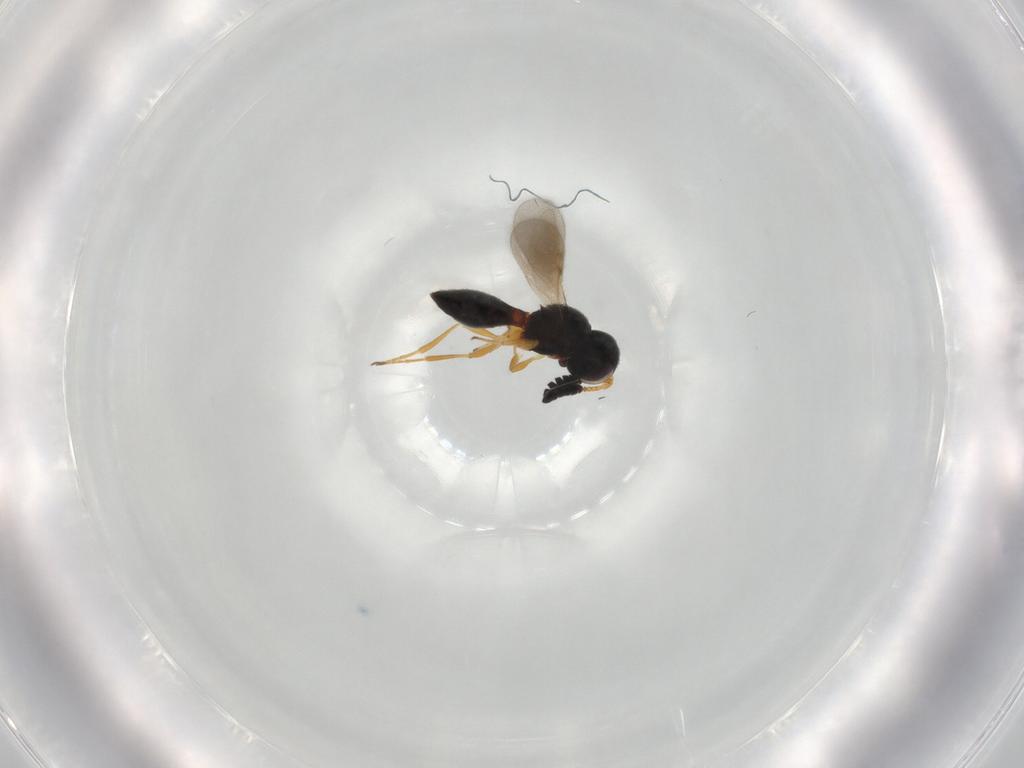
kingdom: Animalia
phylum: Arthropoda
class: Insecta
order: Hymenoptera
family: Scelionidae
